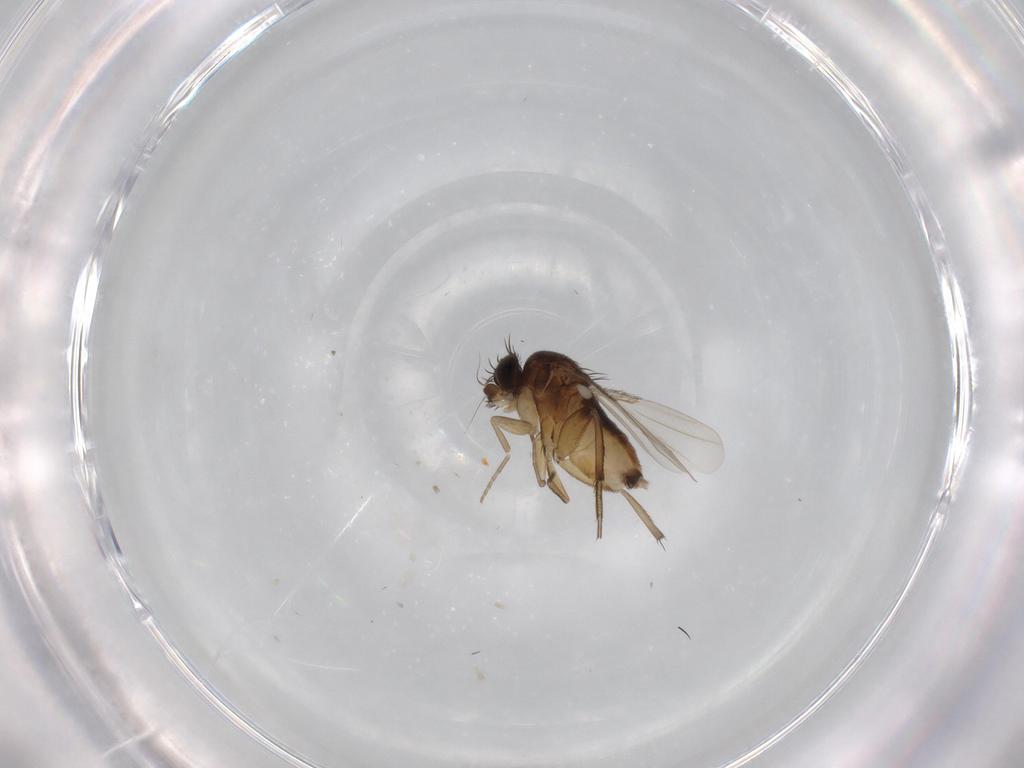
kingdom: Animalia
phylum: Arthropoda
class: Insecta
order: Diptera
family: Phoridae
